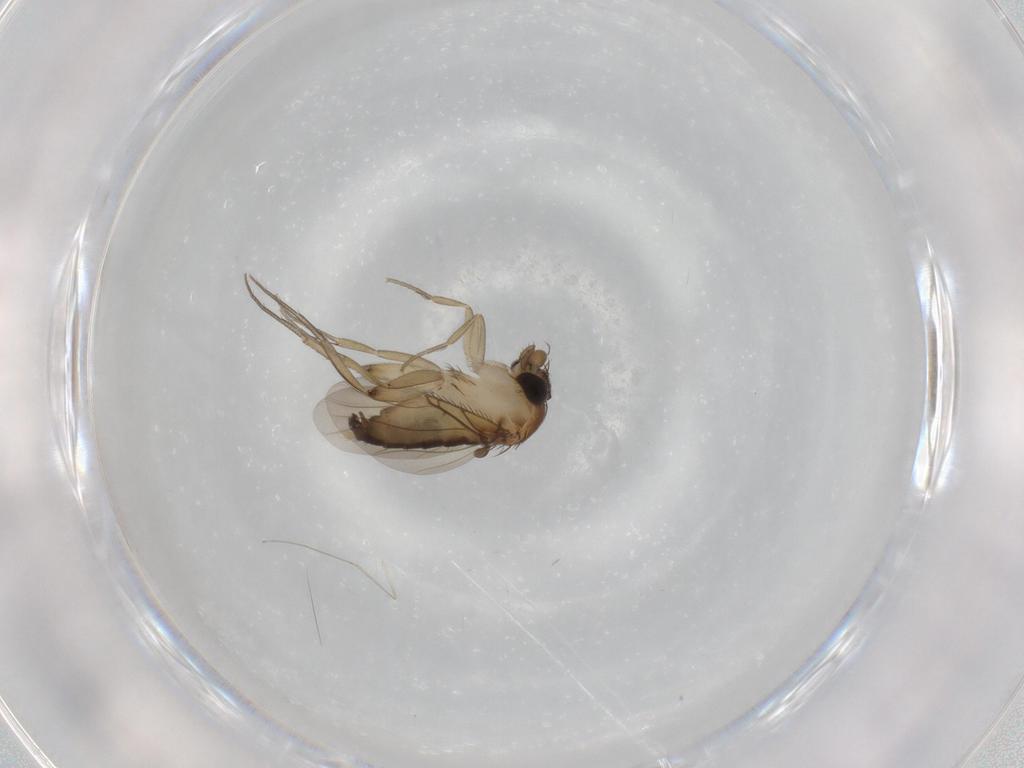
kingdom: Animalia
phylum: Arthropoda
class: Insecta
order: Diptera
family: Phoridae
